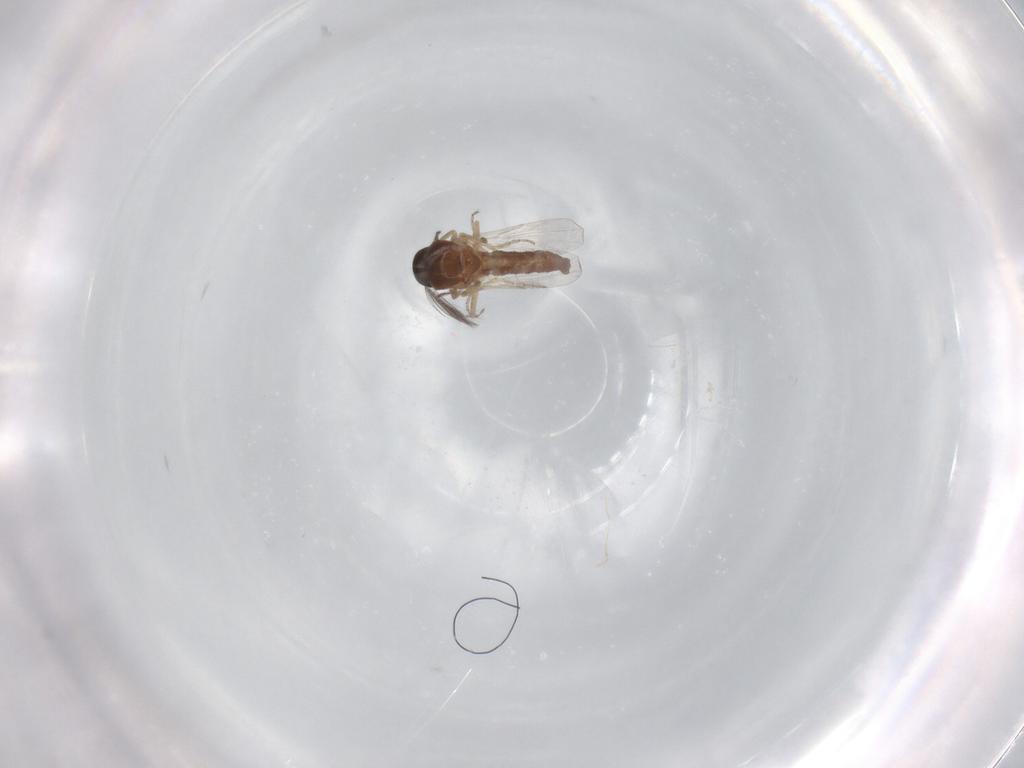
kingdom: Animalia
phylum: Arthropoda
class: Insecta
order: Diptera
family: Ceratopogonidae
